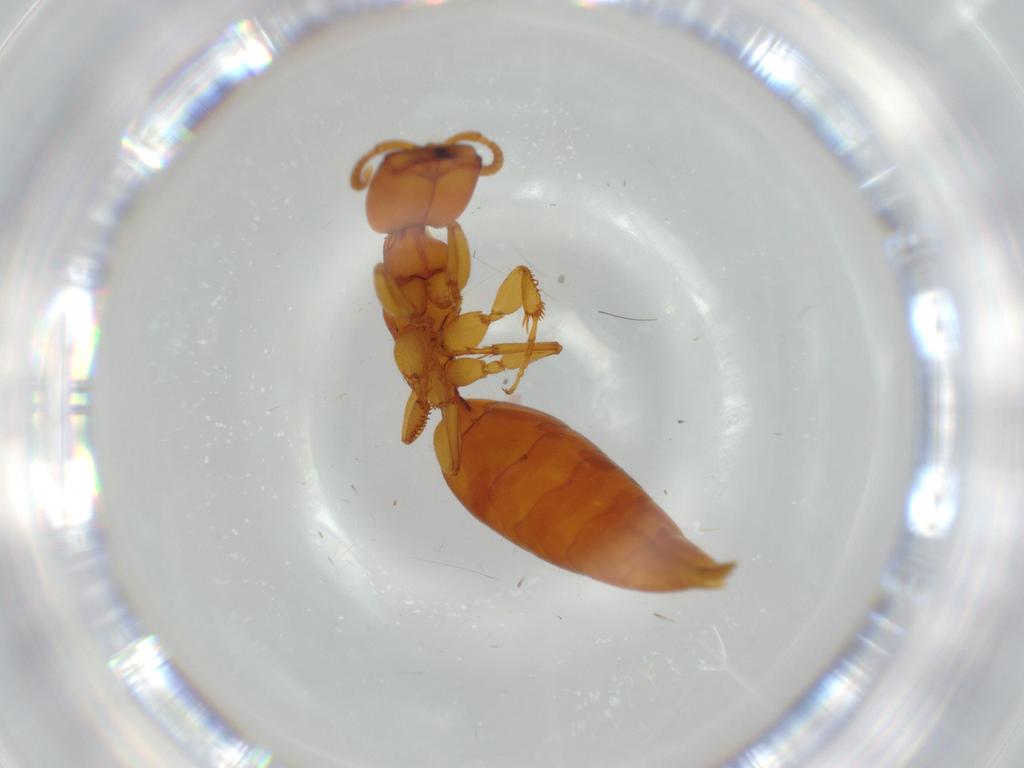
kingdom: Animalia
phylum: Arthropoda
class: Insecta
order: Hymenoptera
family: Bethylidae
